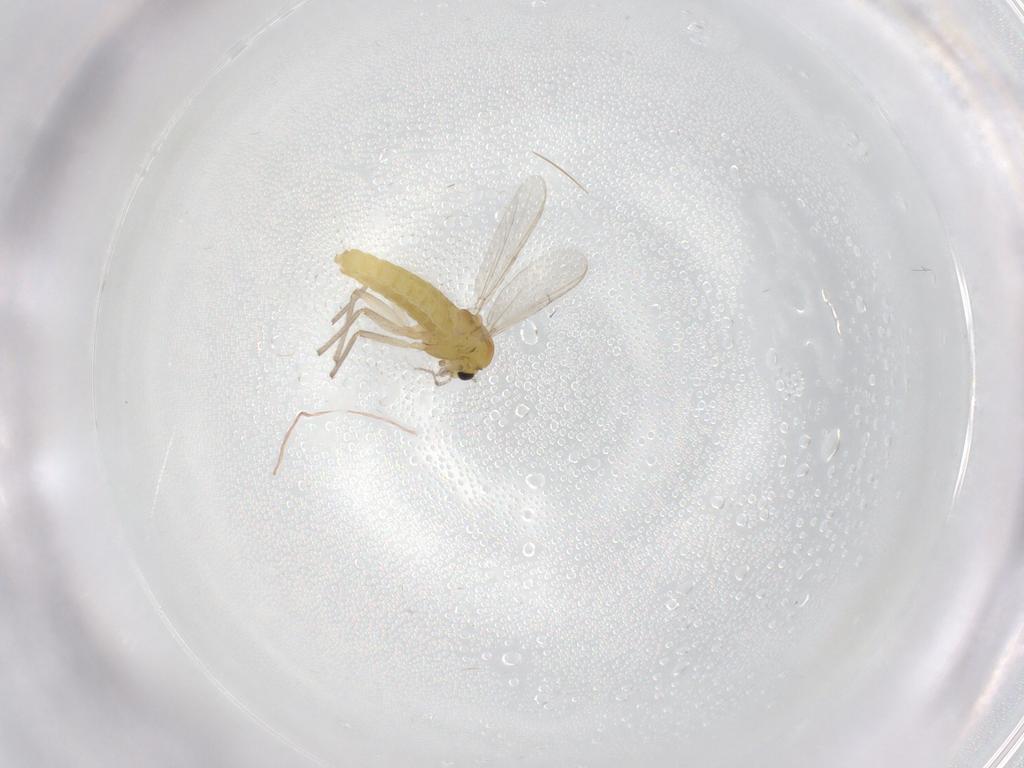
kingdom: Animalia
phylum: Arthropoda
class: Insecta
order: Diptera
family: Chironomidae
